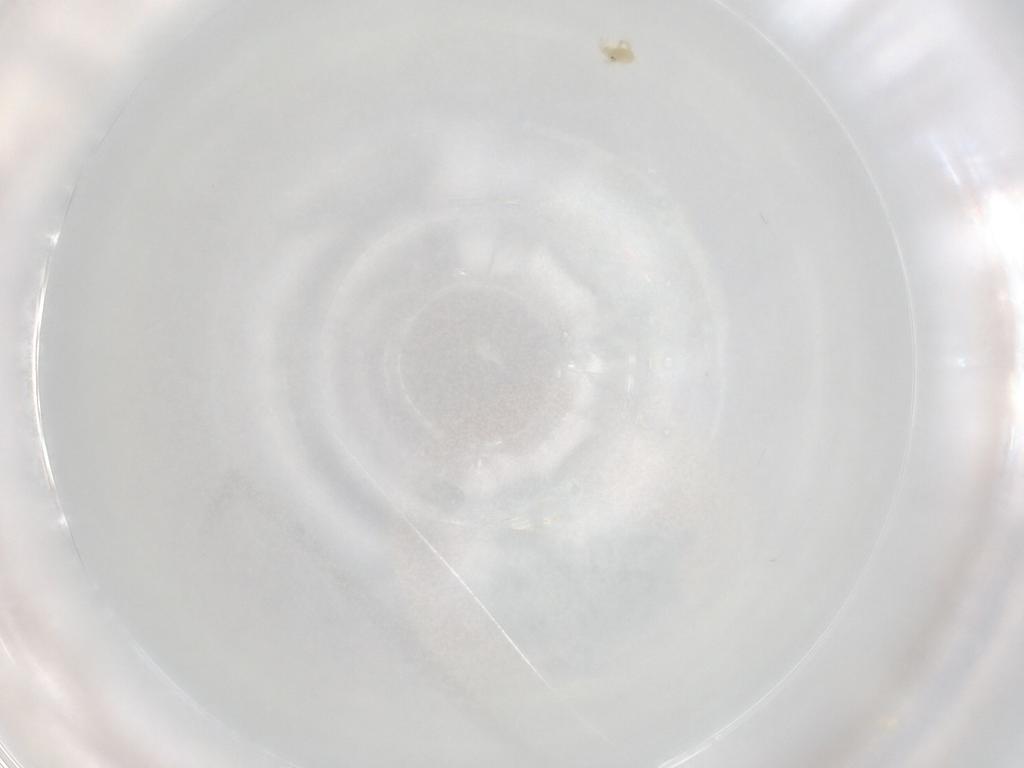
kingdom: Animalia
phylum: Arthropoda
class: Arachnida
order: Trombidiformes
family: Hydryphantidae
